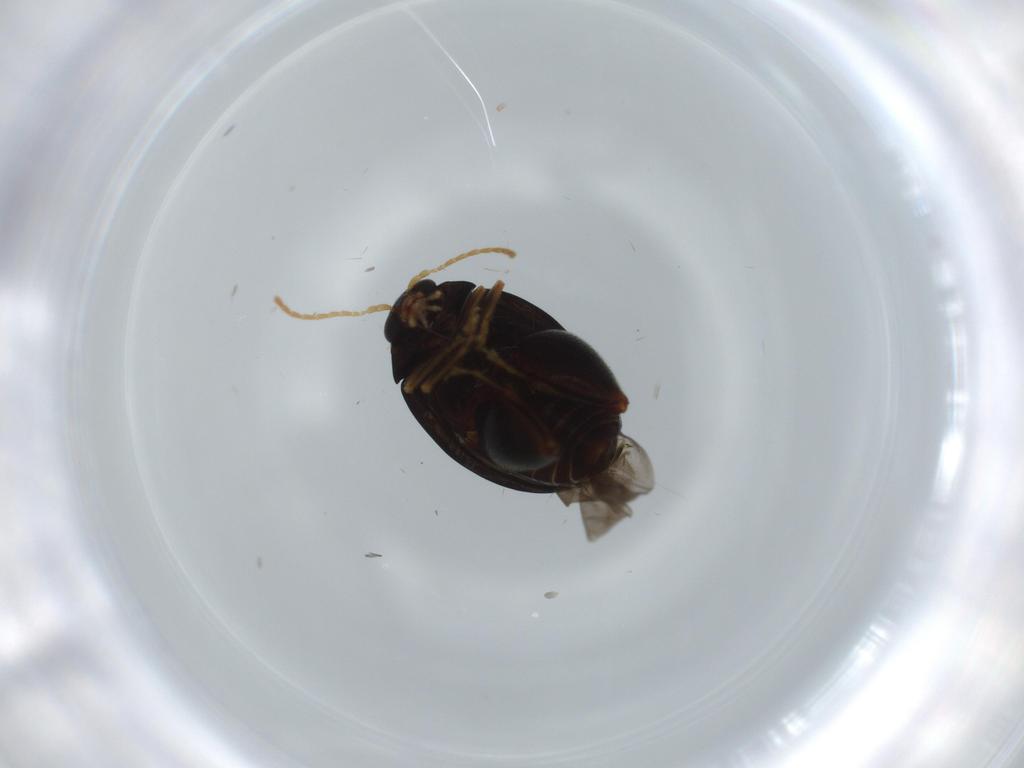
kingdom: Animalia
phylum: Arthropoda
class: Insecta
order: Coleoptera
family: Chrysomelidae
